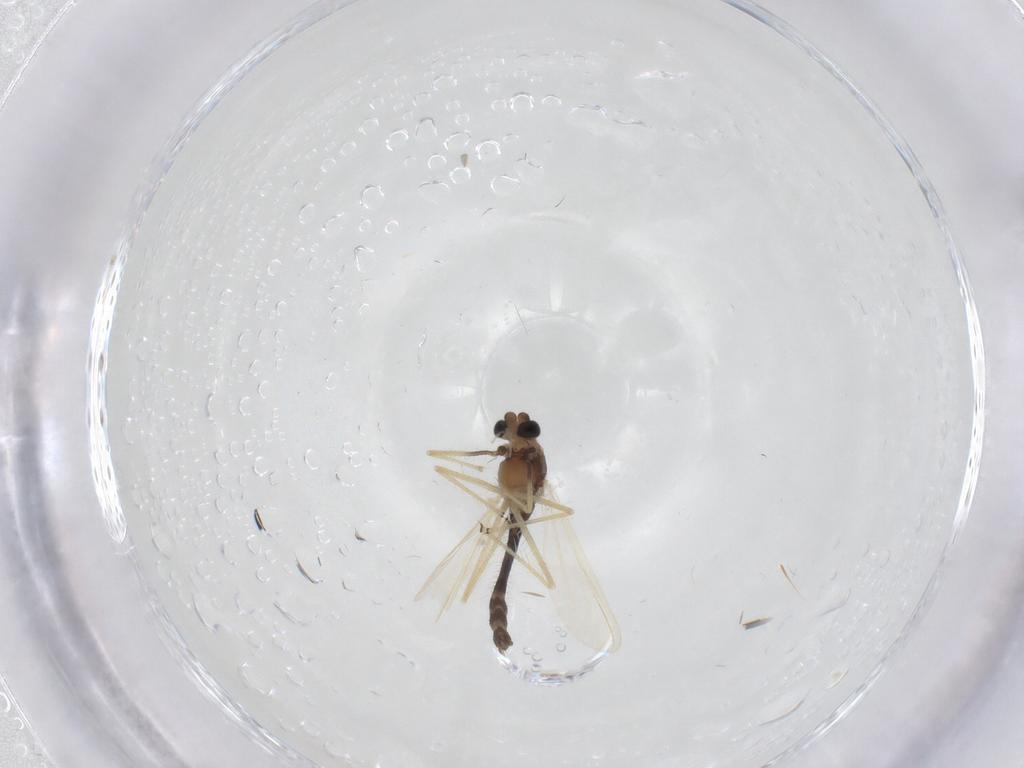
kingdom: Animalia
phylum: Arthropoda
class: Insecta
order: Diptera
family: Chironomidae
